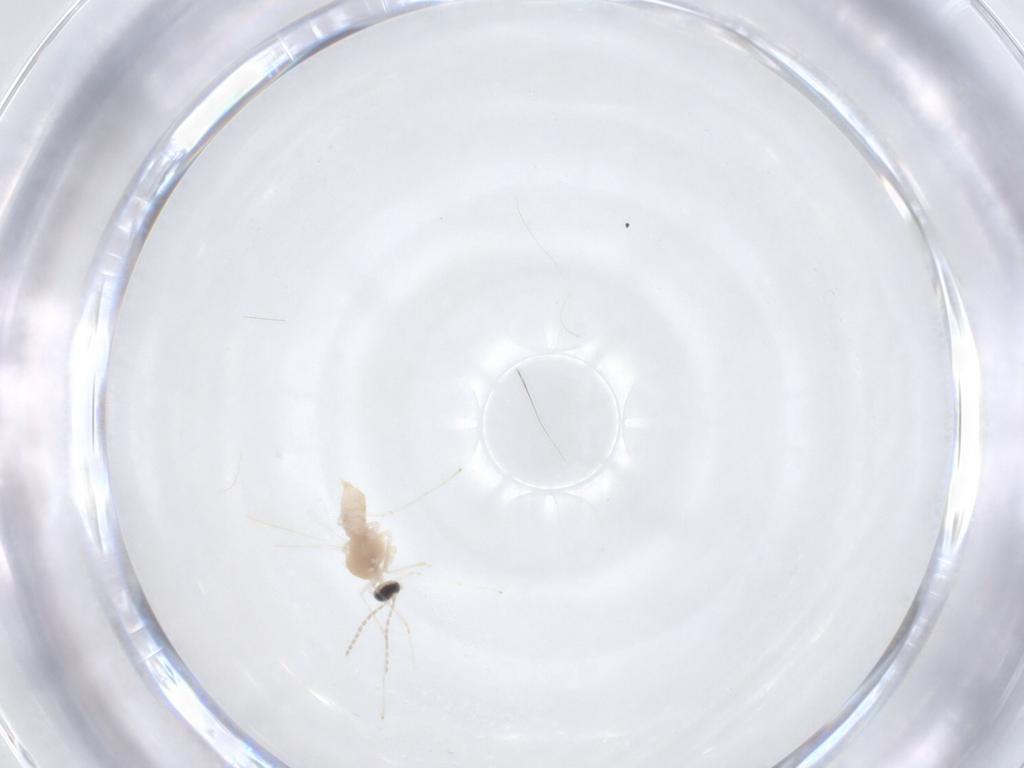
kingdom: Animalia
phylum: Arthropoda
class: Insecta
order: Diptera
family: Cecidomyiidae
